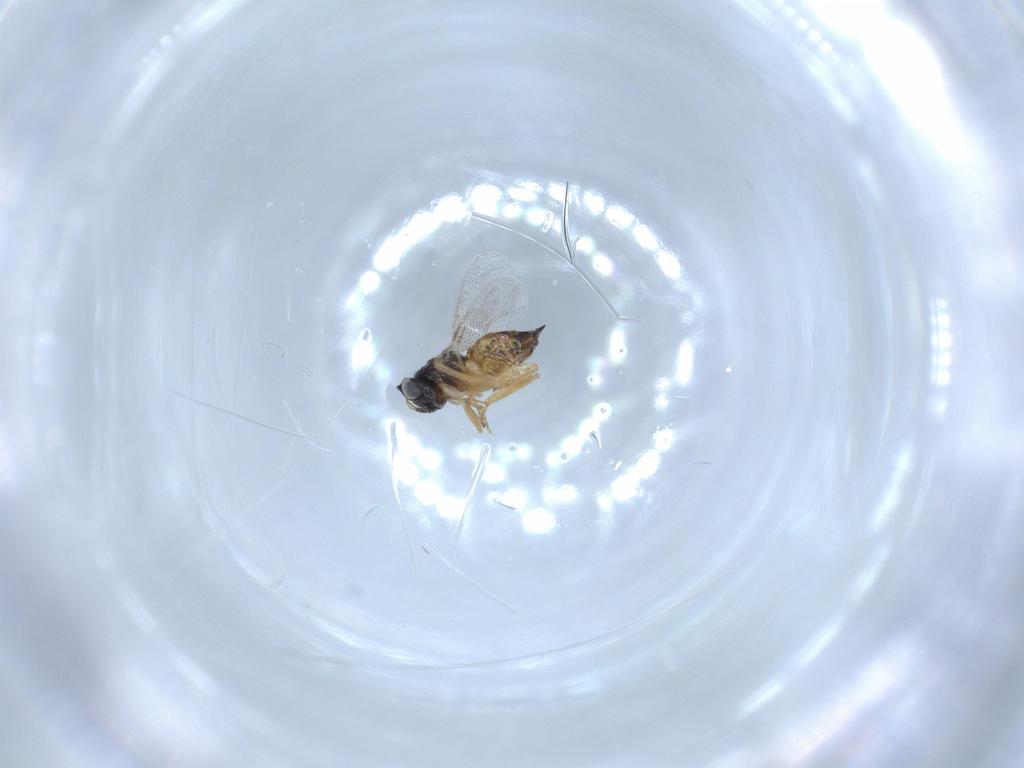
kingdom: Animalia
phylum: Arthropoda
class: Insecta
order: Hymenoptera
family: Eulophidae
